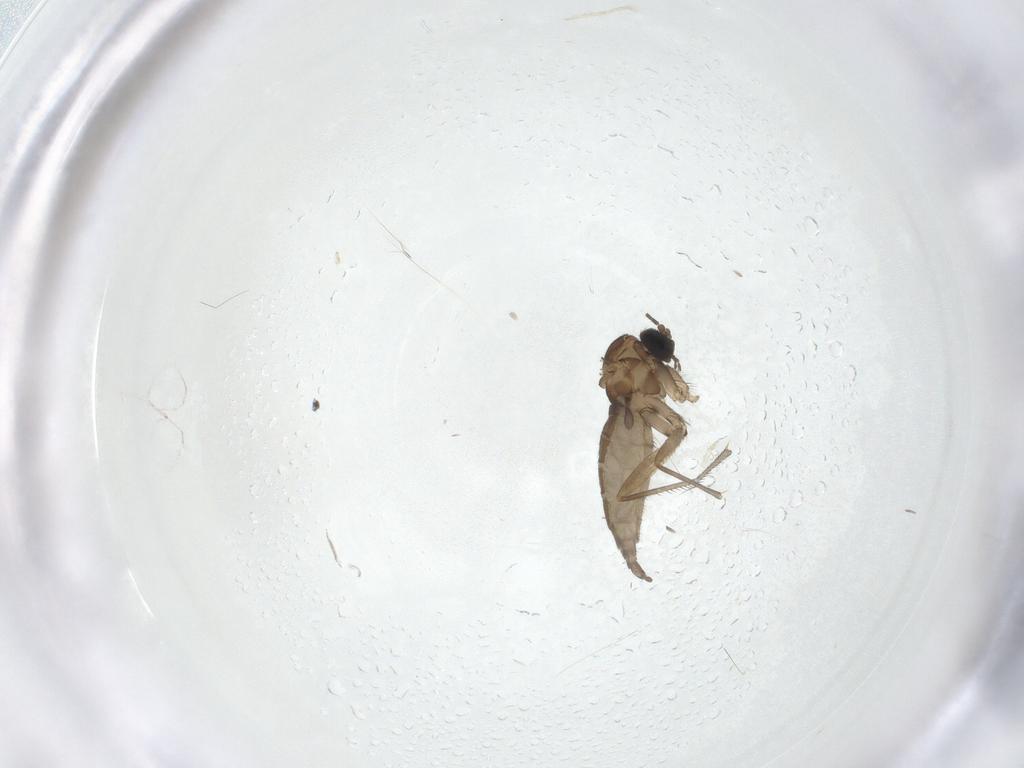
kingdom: Animalia
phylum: Arthropoda
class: Insecta
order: Diptera
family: Sciaridae
